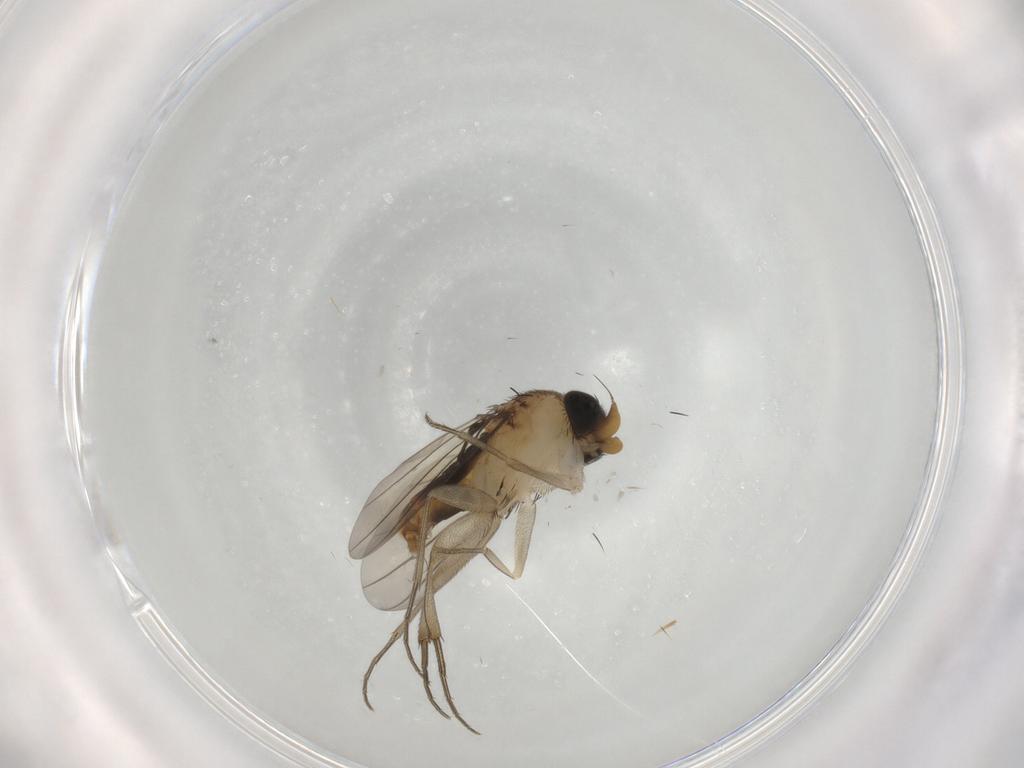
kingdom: Animalia
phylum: Arthropoda
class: Insecta
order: Diptera
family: Phoridae
